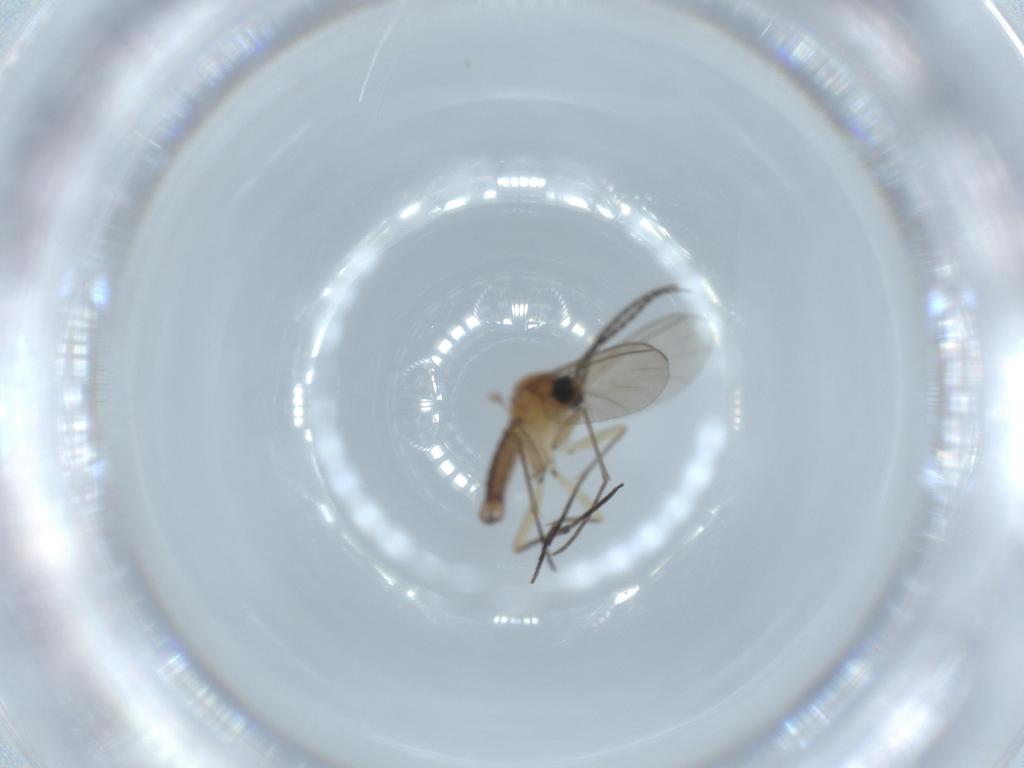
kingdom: Animalia
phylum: Arthropoda
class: Insecta
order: Diptera
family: Sciaridae
